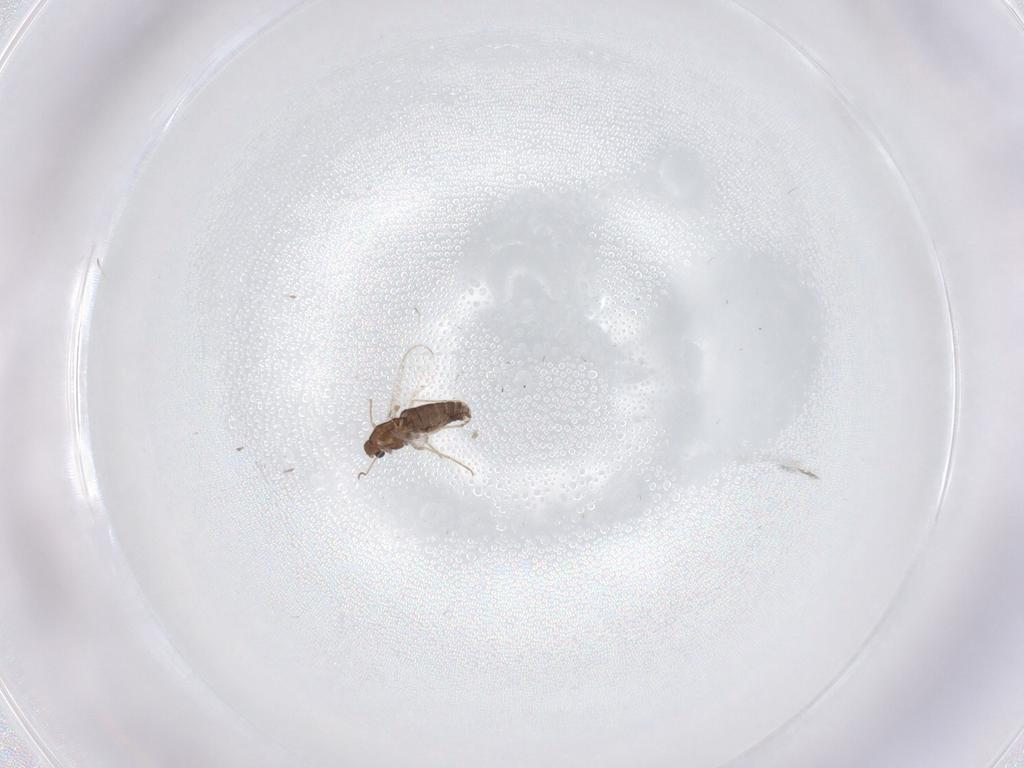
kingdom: Animalia
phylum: Arthropoda
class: Insecta
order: Diptera
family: Chironomidae
